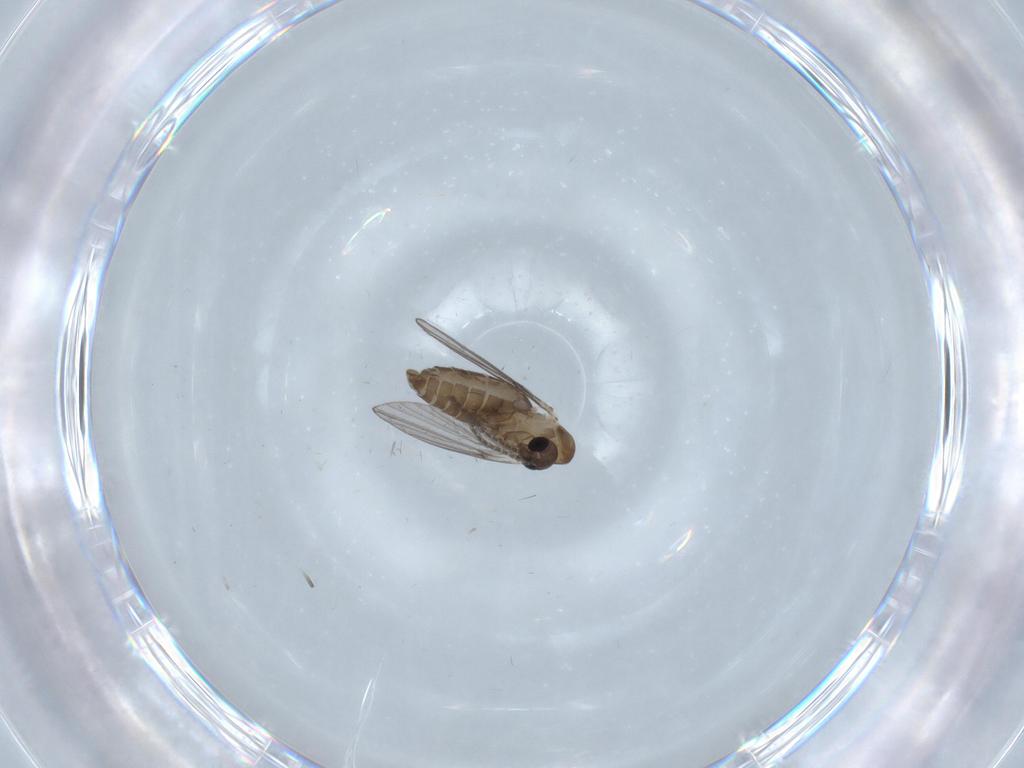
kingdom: Animalia
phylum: Arthropoda
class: Insecta
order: Diptera
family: Psychodidae
